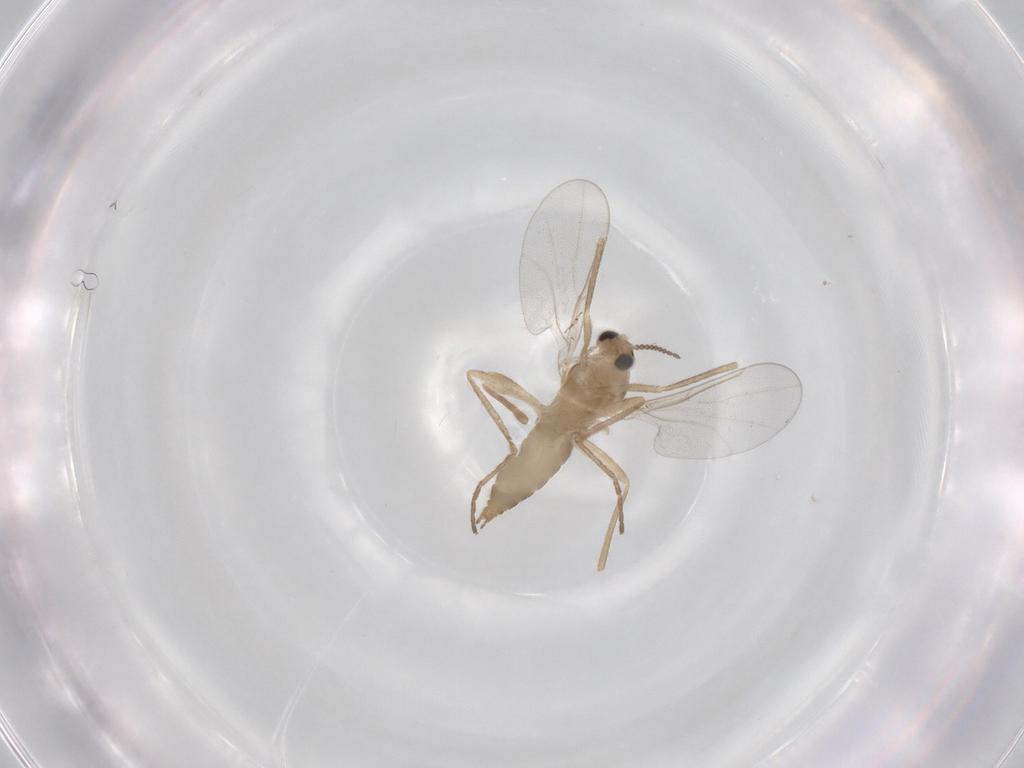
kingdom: Animalia
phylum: Arthropoda
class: Insecta
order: Diptera
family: Cecidomyiidae
